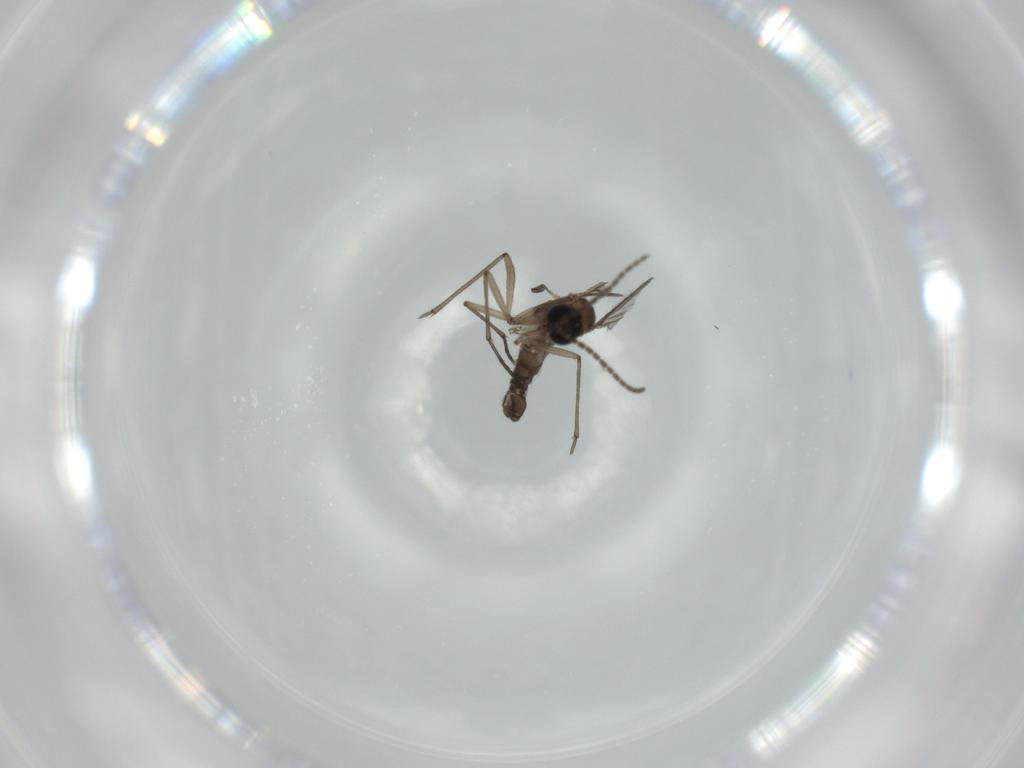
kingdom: Animalia
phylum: Arthropoda
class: Insecta
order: Diptera
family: Sciaridae
